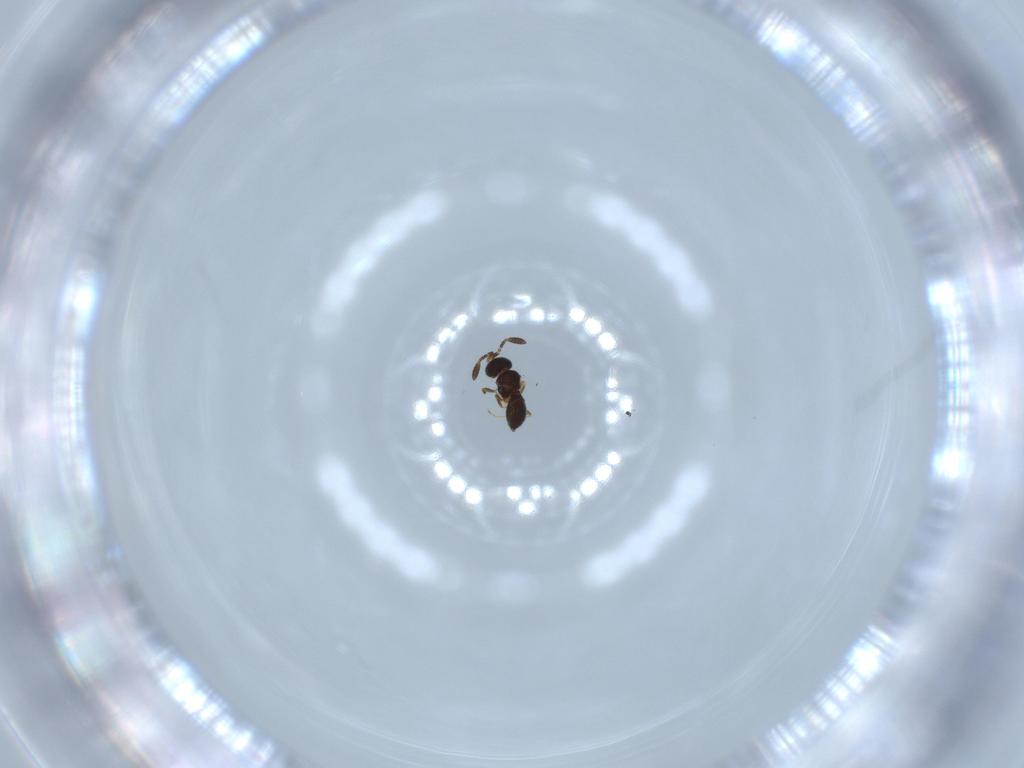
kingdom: Animalia
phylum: Arthropoda
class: Insecta
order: Hymenoptera
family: Scelionidae
